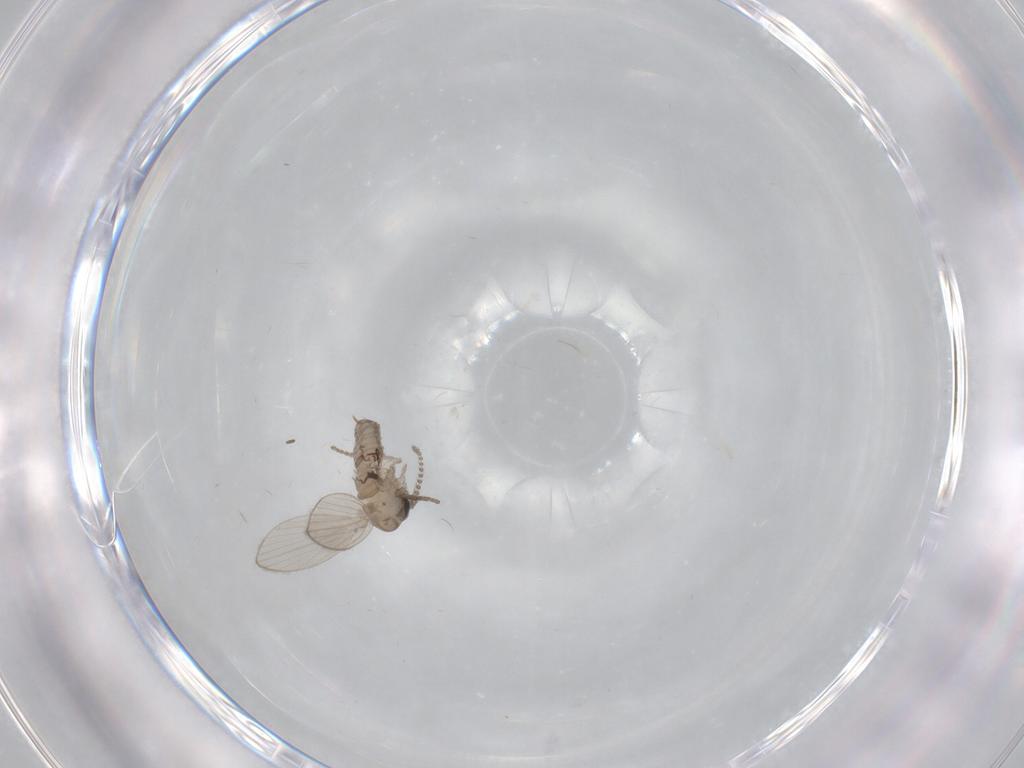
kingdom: Animalia
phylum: Arthropoda
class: Insecta
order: Diptera
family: Psychodidae
